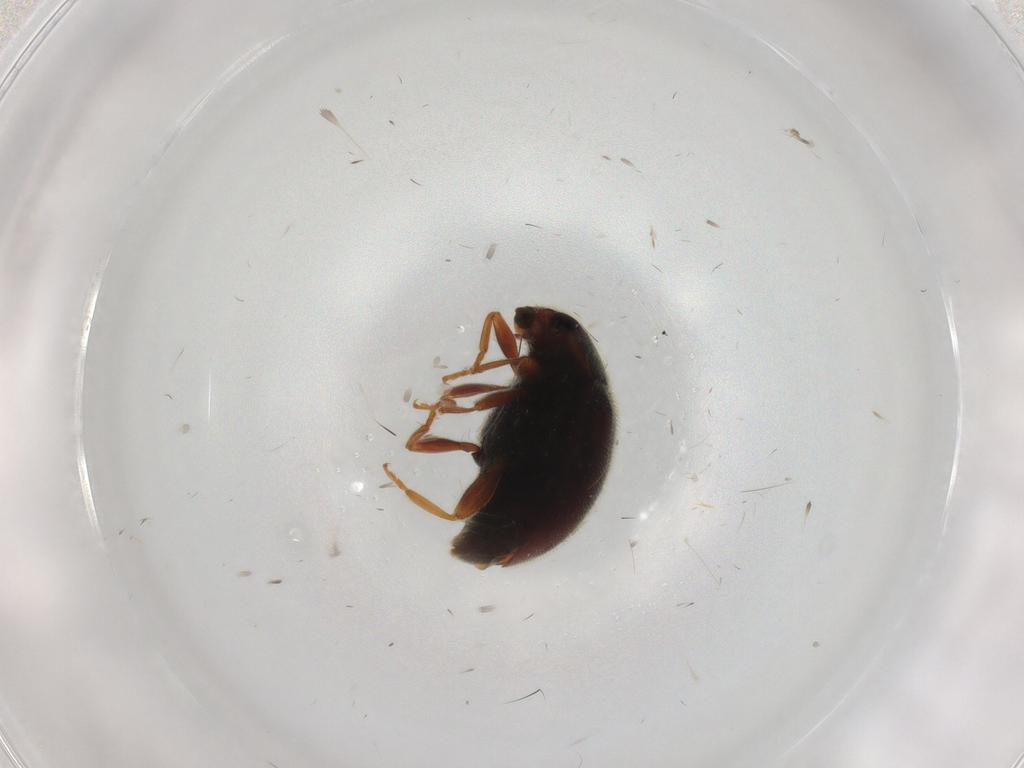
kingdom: Animalia
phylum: Arthropoda
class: Insecta
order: Coleoptera
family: Coccinellidae
